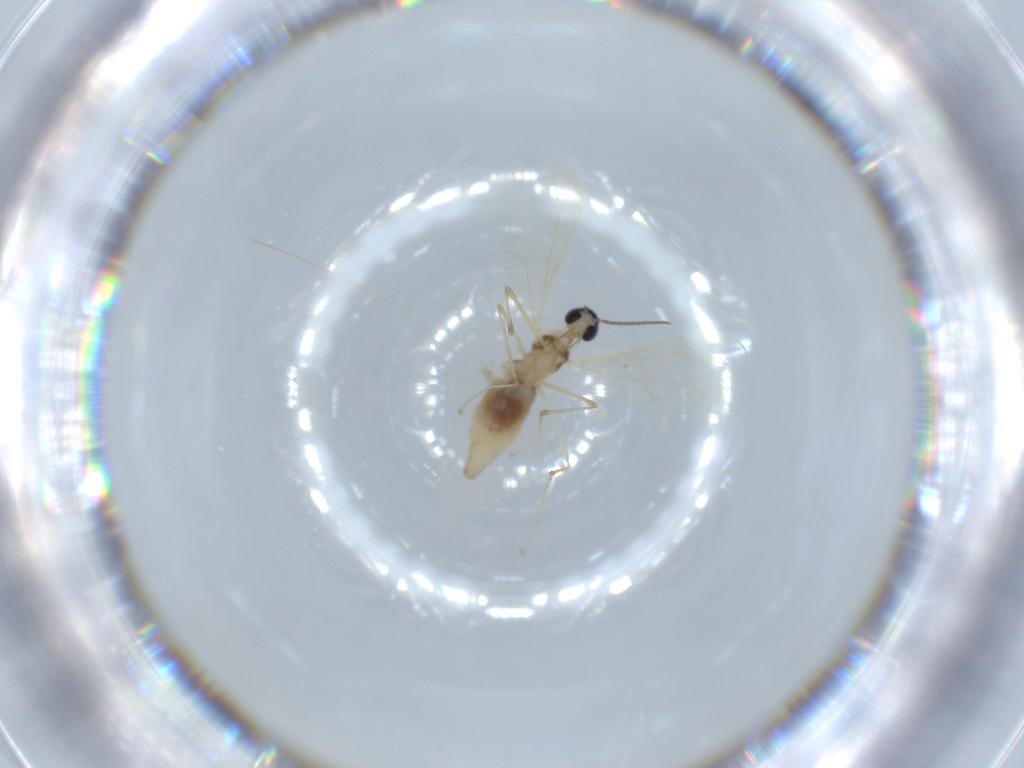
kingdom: Animalia
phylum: Arthropoda
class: Insecta
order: Diptera
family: Cecidomyiidae
